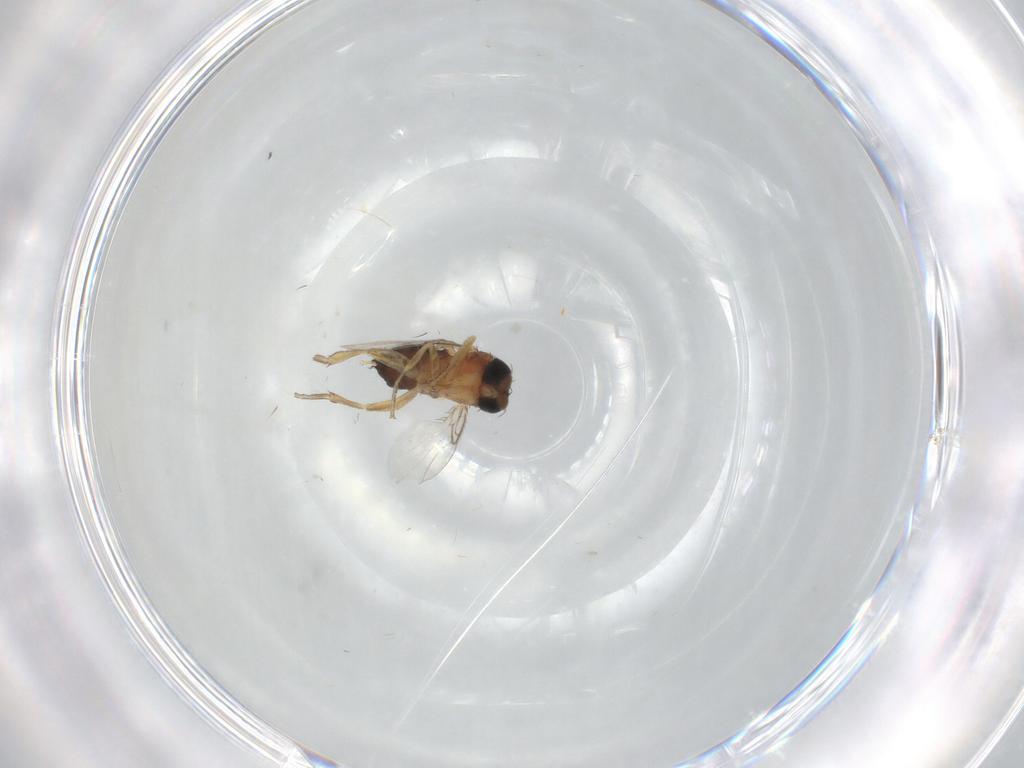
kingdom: Animalia
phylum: Arthropoda
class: Insecta
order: Diptera
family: Phoridae
